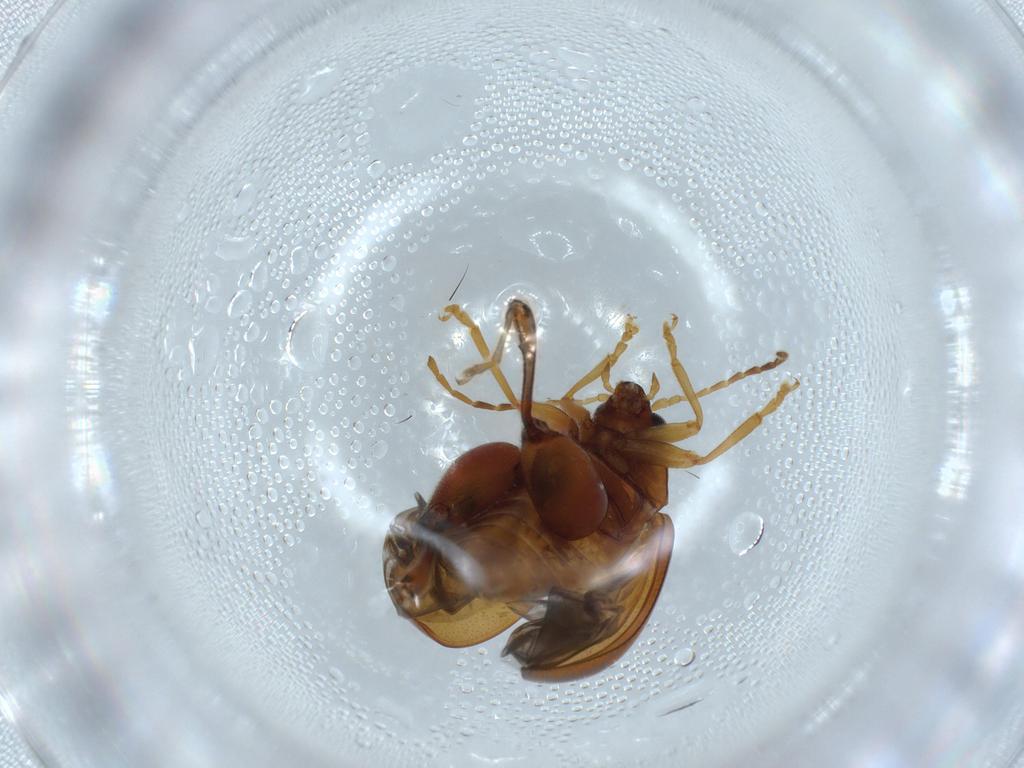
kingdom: Animalia
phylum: Arthropoda
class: Insecta
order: Coleoptera
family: Chrysomelidae
